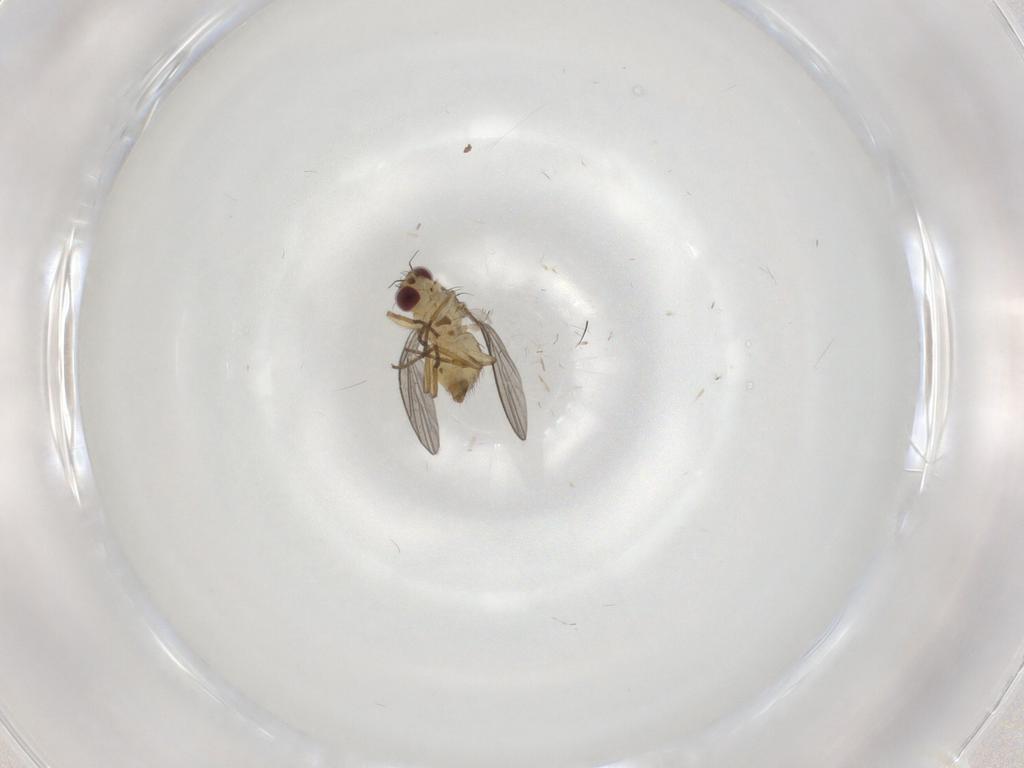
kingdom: Animalia
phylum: Arthropoda
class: Insecta
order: Diptera
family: Agromyzidae
